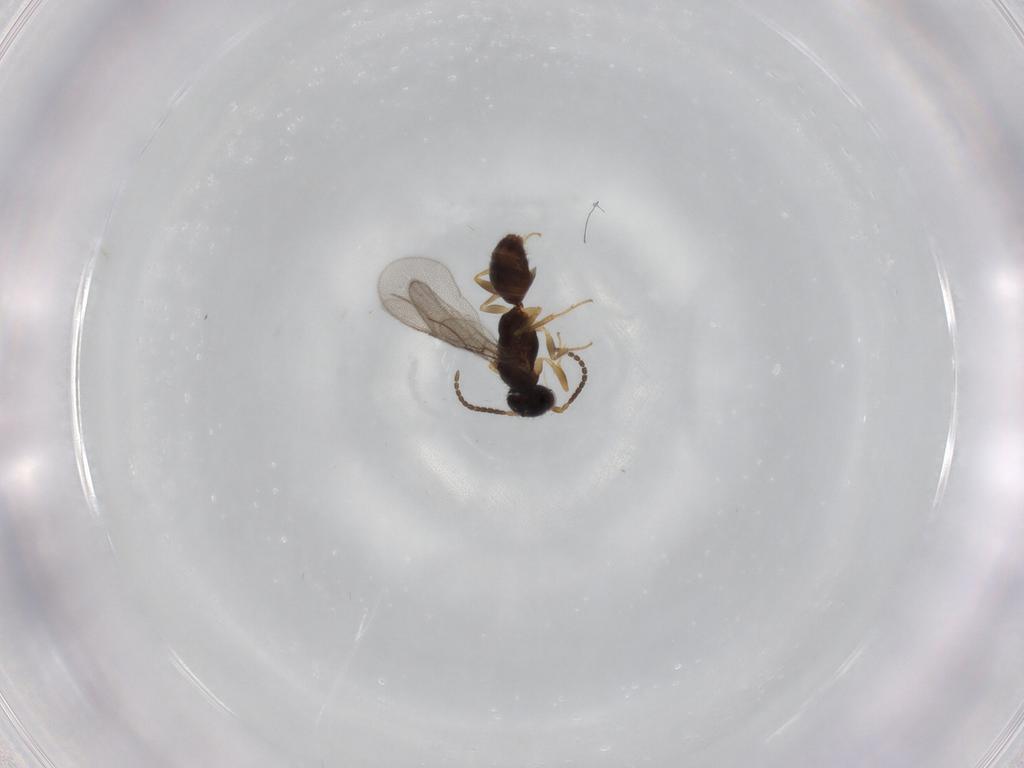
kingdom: Animalia
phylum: Arthropoda
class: Insecta
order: Hymenoptera
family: Bethylidae
